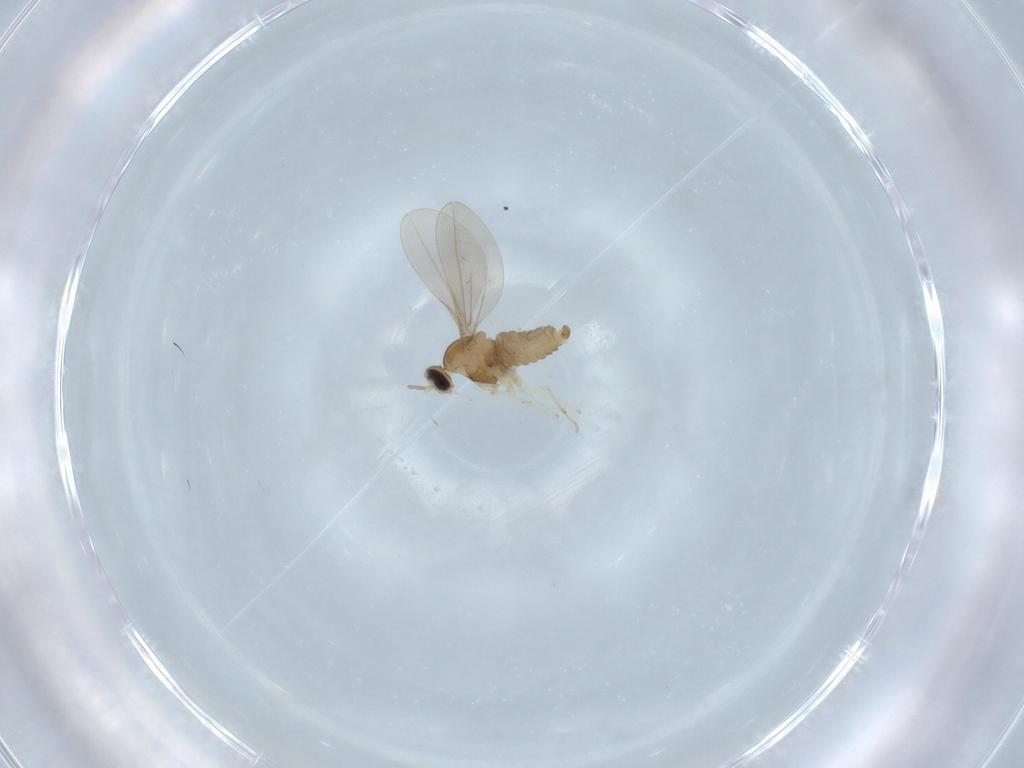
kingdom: Animalia
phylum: Arthropoda
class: Insecta
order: Diptera
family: Cecidomyiidae
